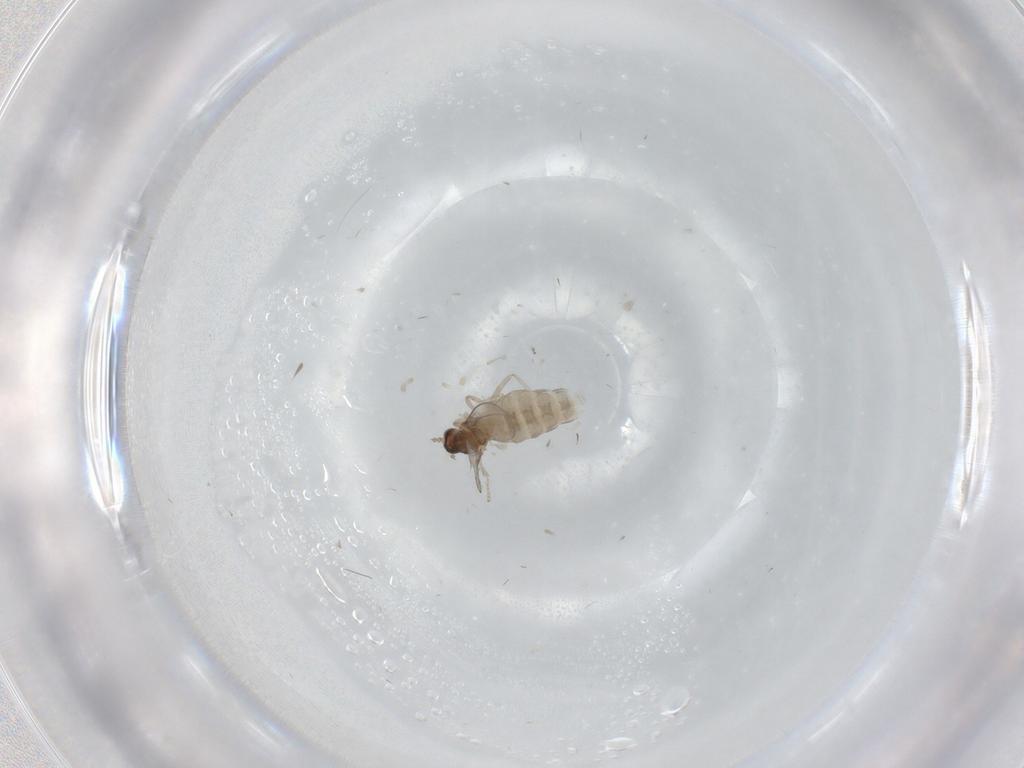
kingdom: Animalia
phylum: Arthropoda
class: Insecta
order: Diptera
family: Cecidomyiidae
